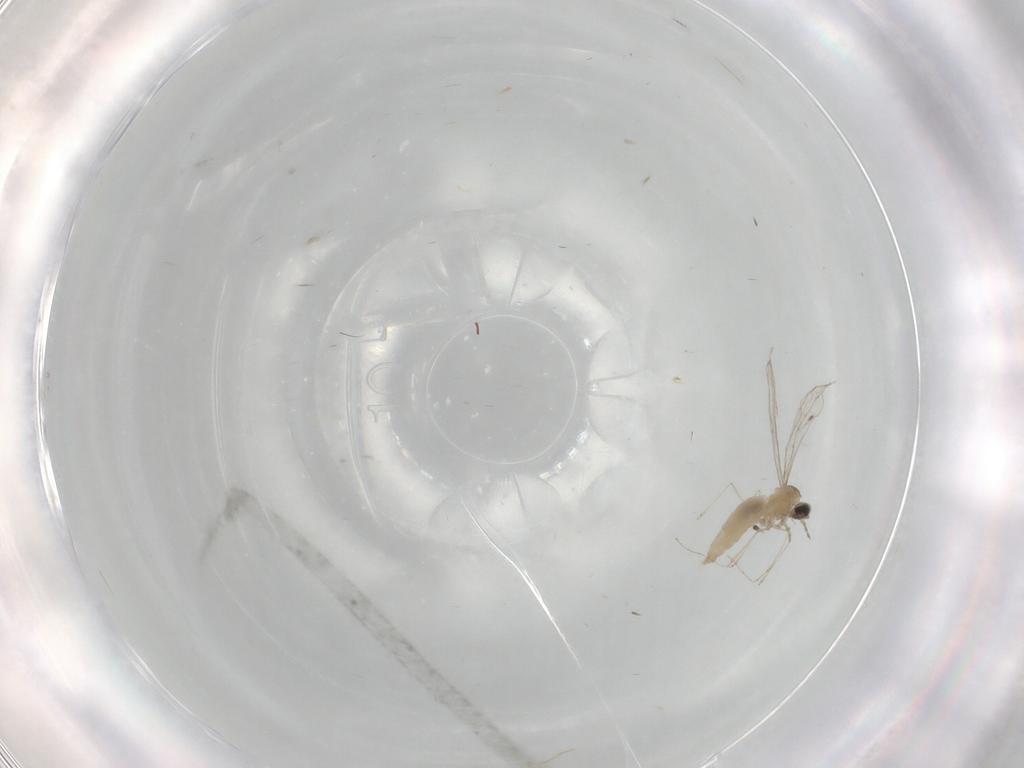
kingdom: Animalia
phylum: Arthropoda
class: Insecta
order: Diptera
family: Cecidomyiidae
